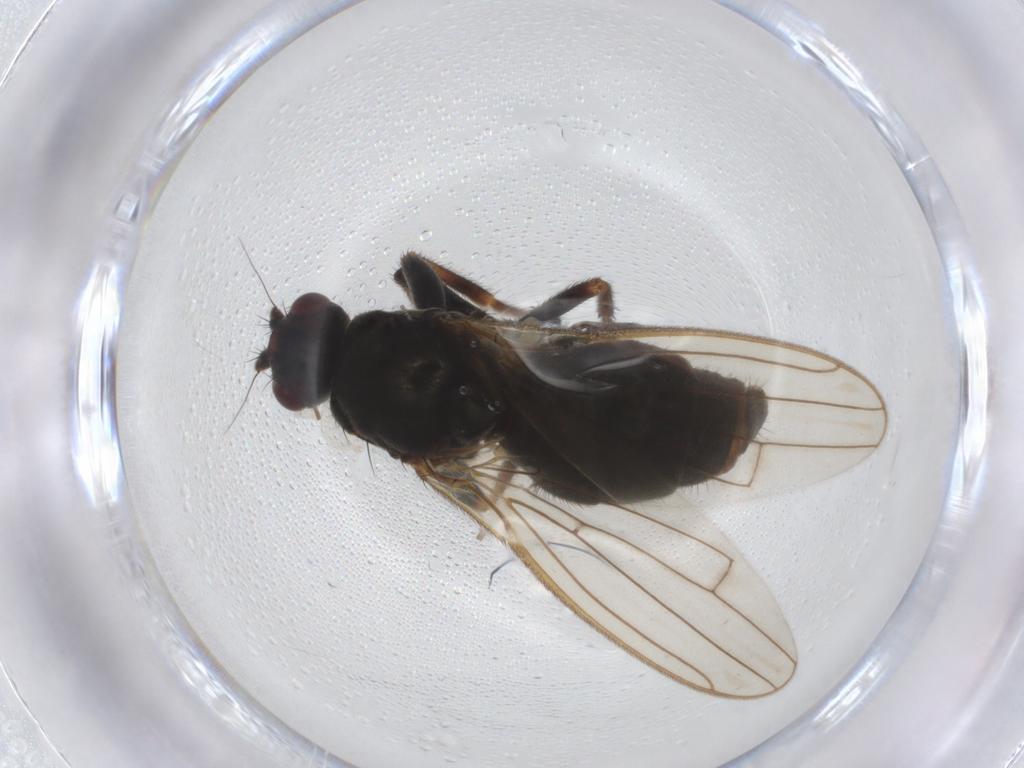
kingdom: Animalia
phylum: Arthropoda
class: Insecta
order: Diptera
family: Sphaeroceridae
